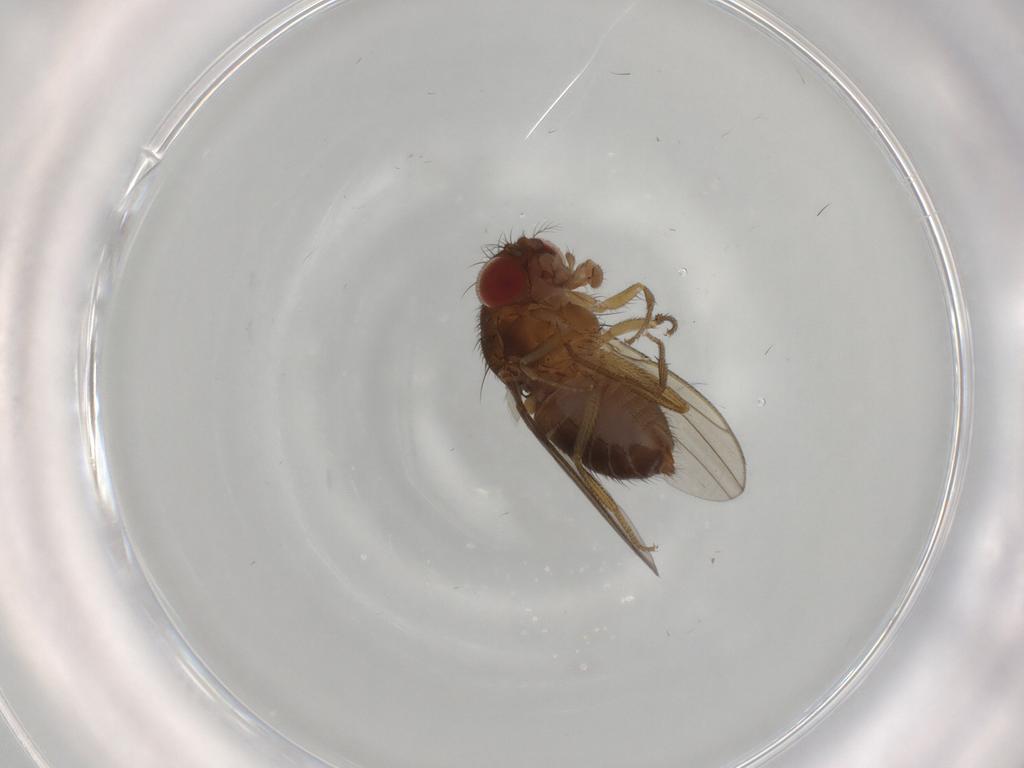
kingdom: Animalia
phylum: Arthropoda
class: Insecta
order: Diptera
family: Drosophilidae
